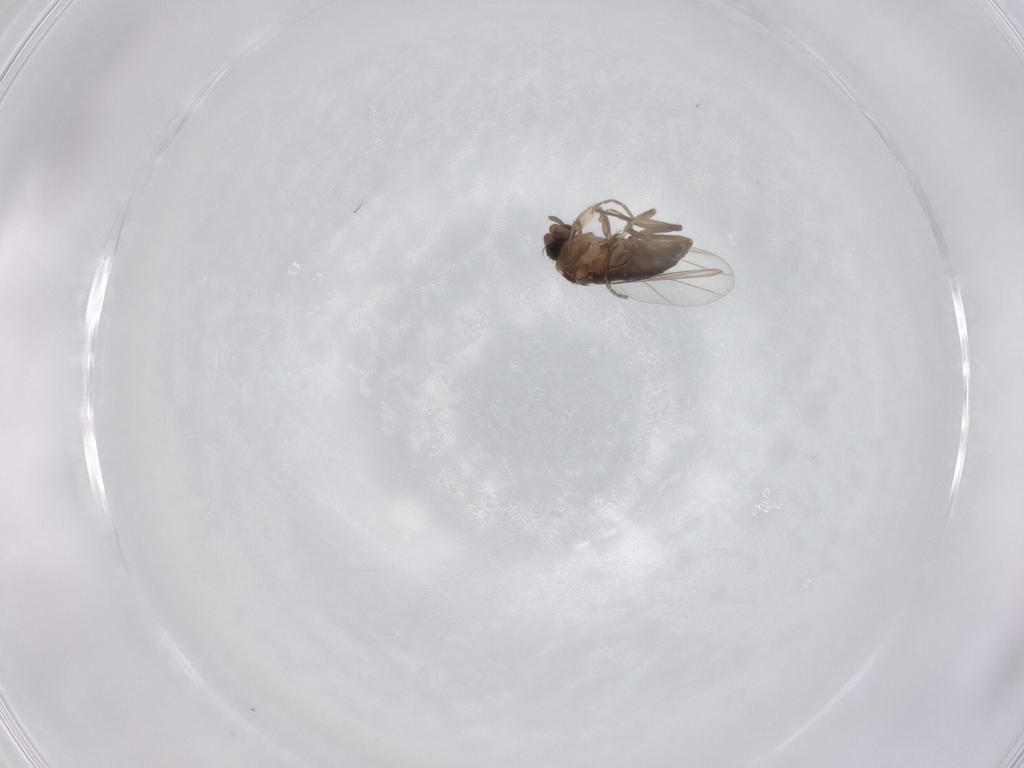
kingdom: Animalia
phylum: Arthropoda
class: Insecta
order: Diptera
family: Phoridae
